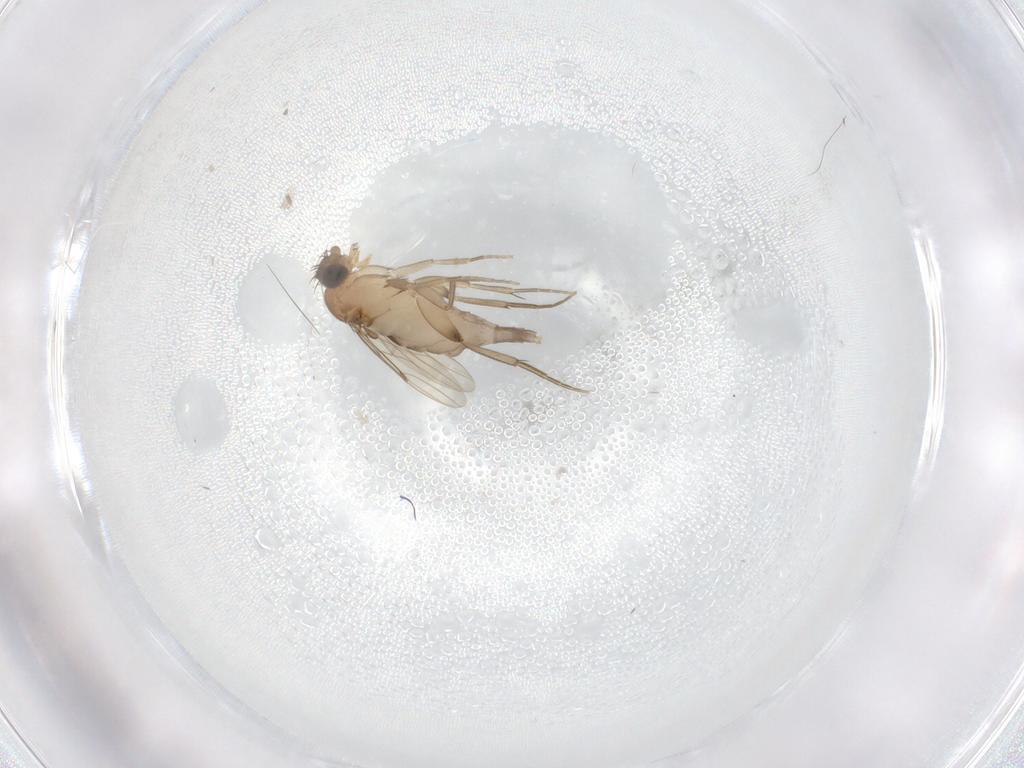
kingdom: Animalia
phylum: Arthropoda
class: Insecta
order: Diptera
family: Phoridae
